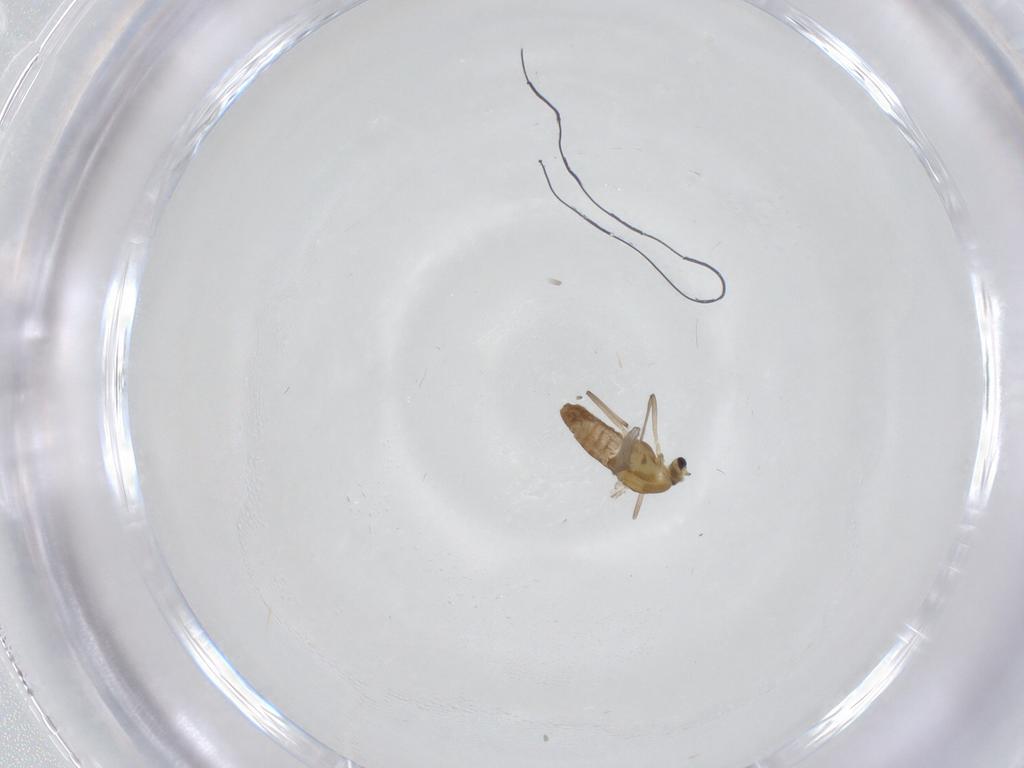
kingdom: Animalia
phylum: Arthropoda
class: Insecta
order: Diptera
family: Chironomidae
